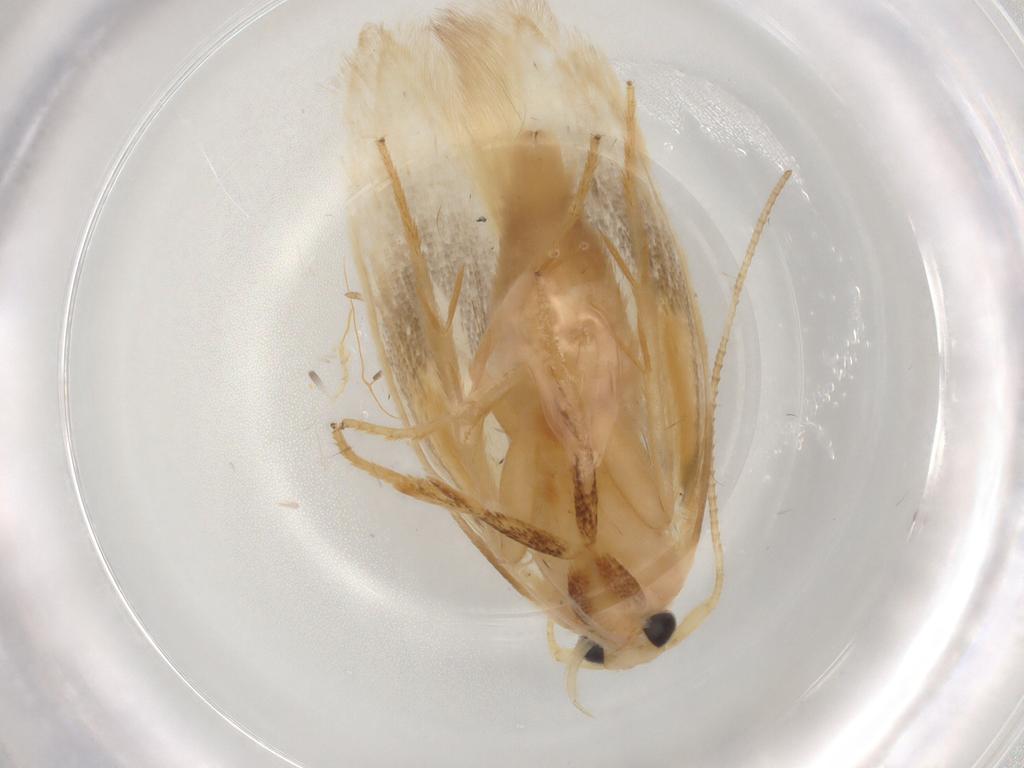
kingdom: Animalia
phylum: Arthropoda
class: Insecta
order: Lepidoptera
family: Geometridae
